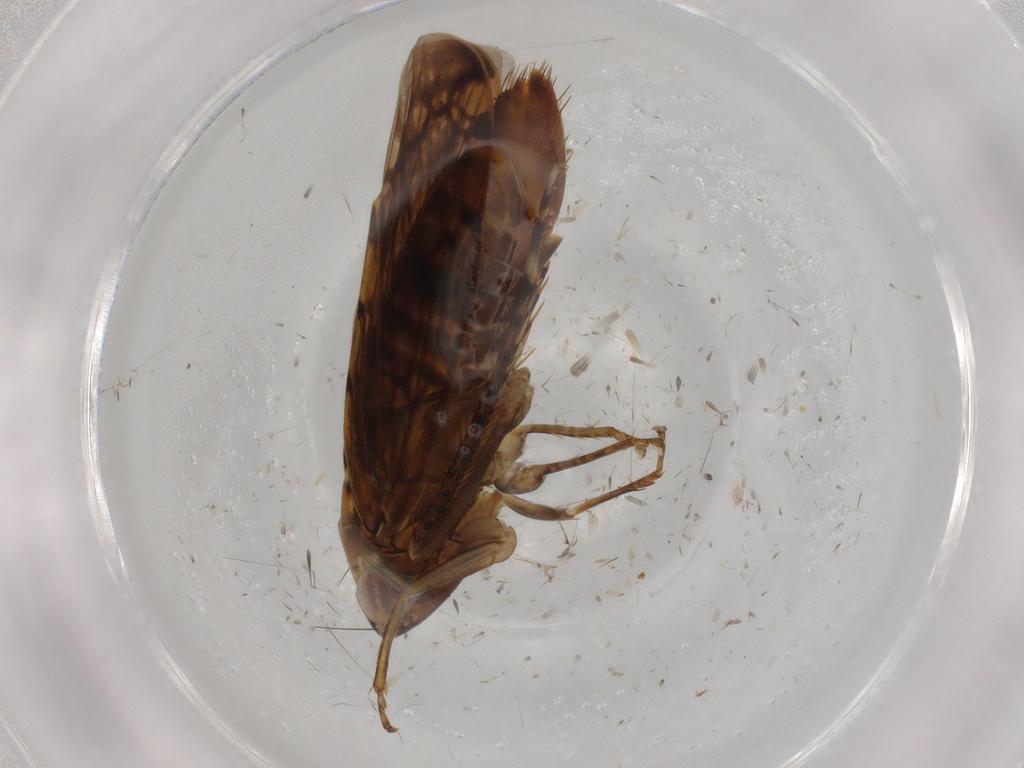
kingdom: Animalia
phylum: Arthropoda
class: Insecta
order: Hemiptera
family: Cicadellidae
